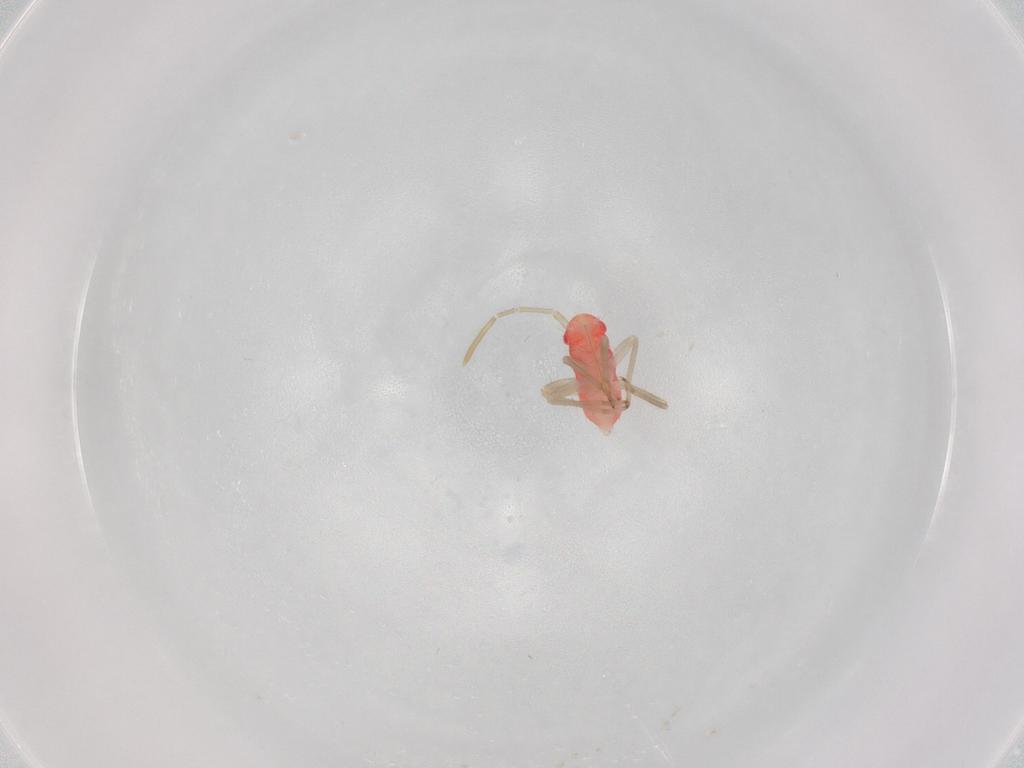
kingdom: Animalia
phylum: Arthropoda
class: Insecta
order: Hemiptera
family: Miridae
